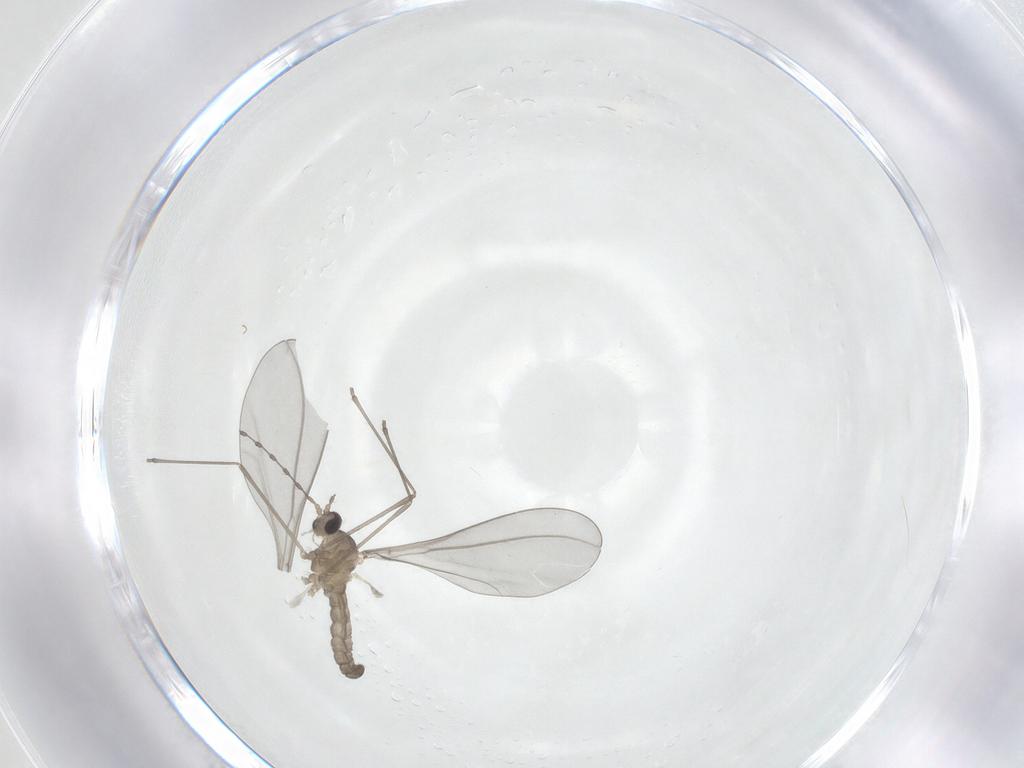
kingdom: Animalia
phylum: Arthropoda
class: Insecta
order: Diptera
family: Cecidomyiidae
